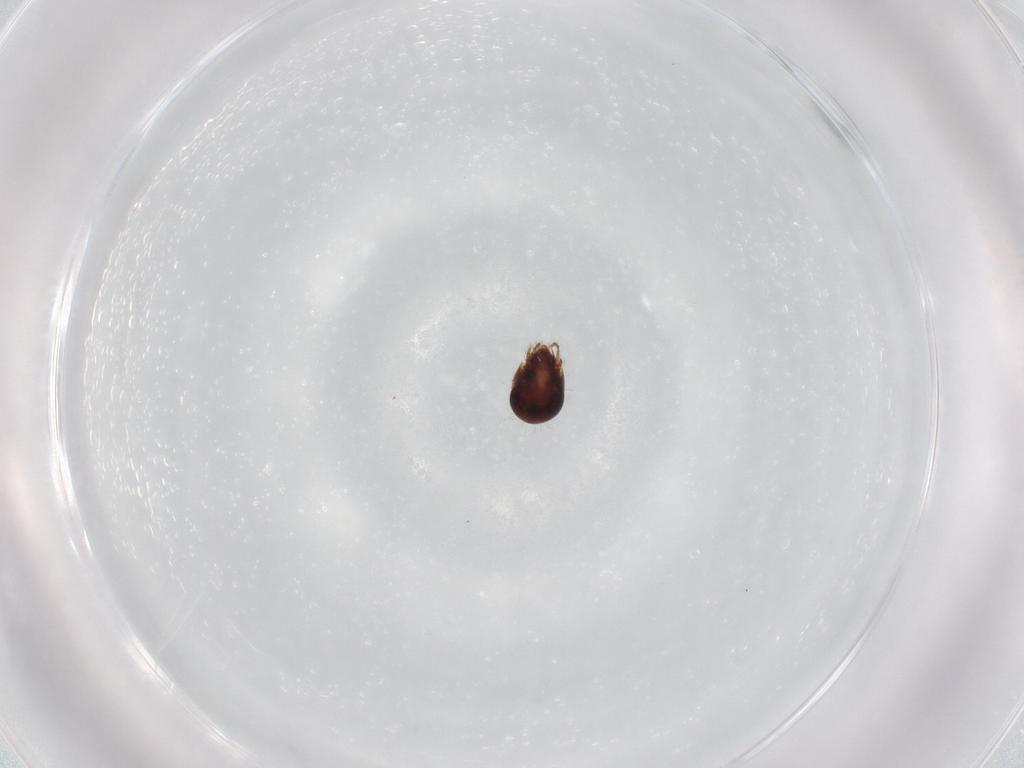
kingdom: Animalia
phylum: Arthropoda
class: Arachnida
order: Sarcoptiformes
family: Humerobatidae
